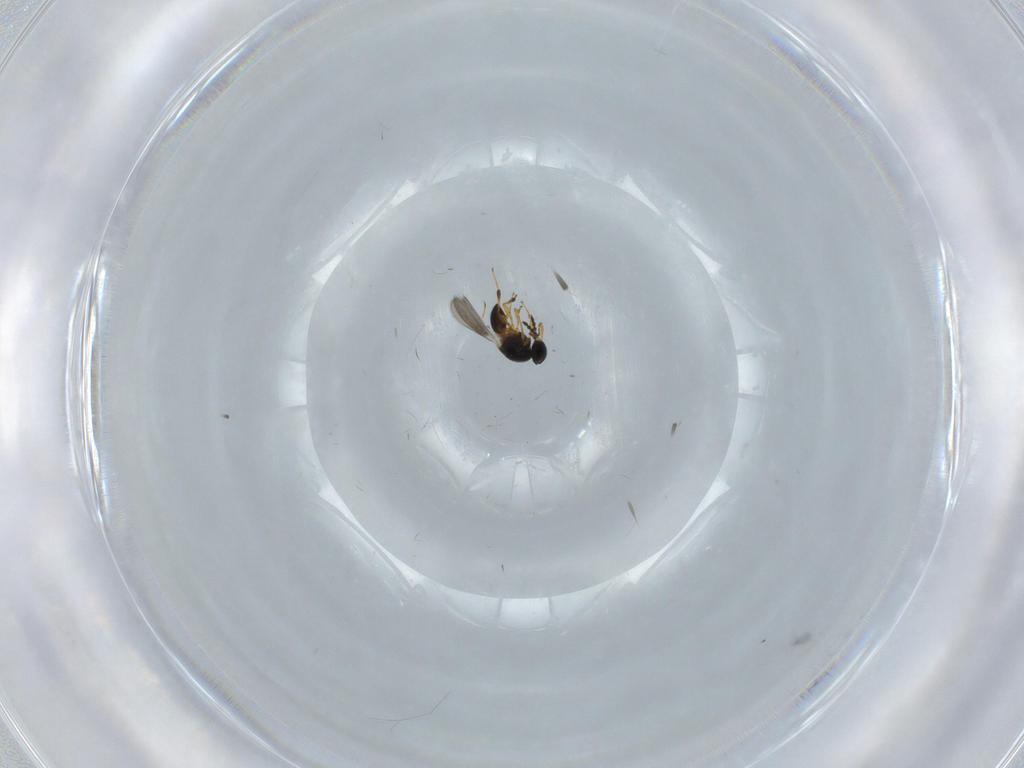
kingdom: Animalia
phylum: Arthropoda
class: Insecta
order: Hymenoptera
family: Platygastridae
